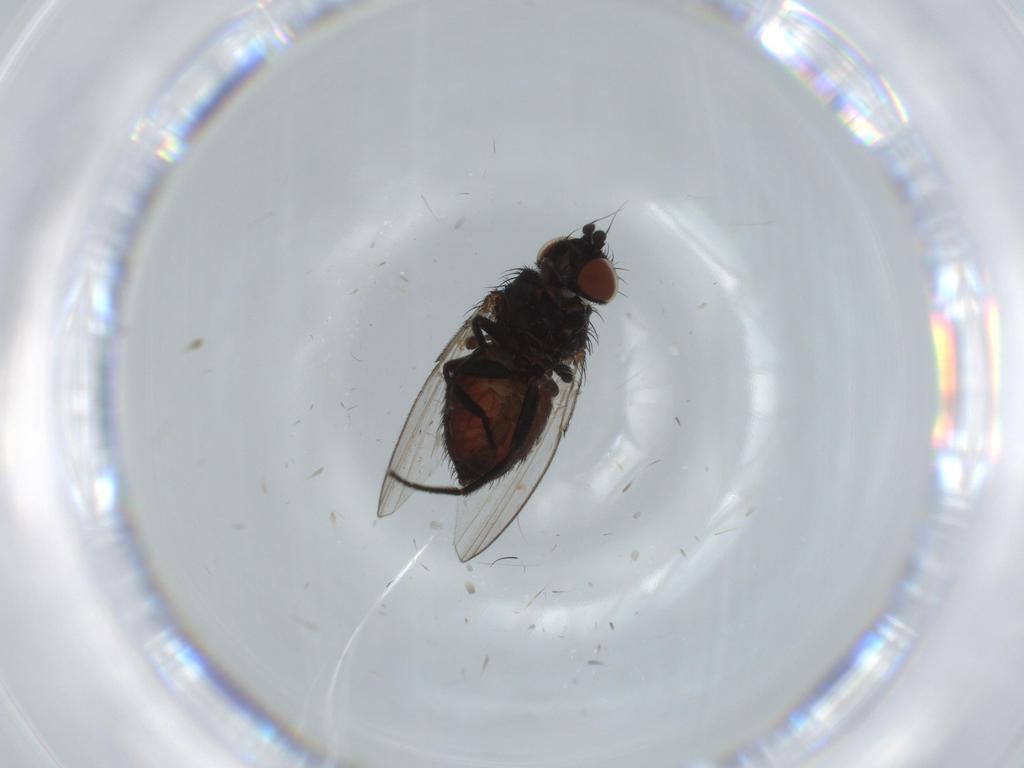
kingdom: Animalia
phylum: Arthropoda
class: Insecta
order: Diptera
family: Milichiidae
